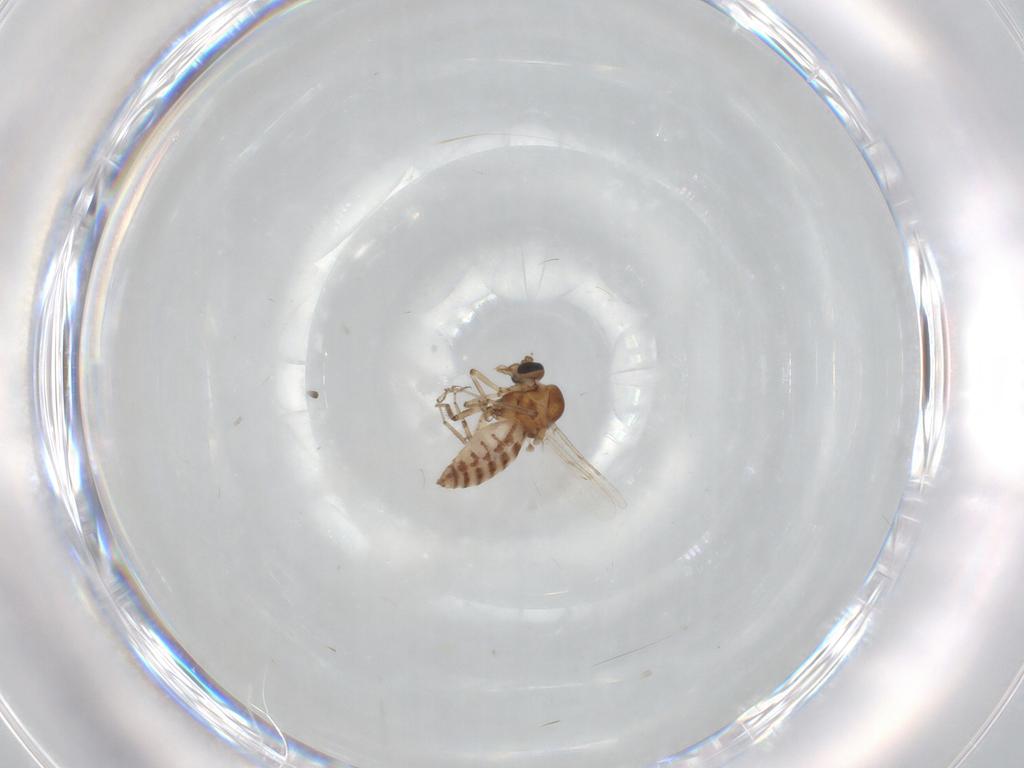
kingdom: Animalia
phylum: Arthropoda
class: Insecta
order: Diptera
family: Ceratopogonidae
